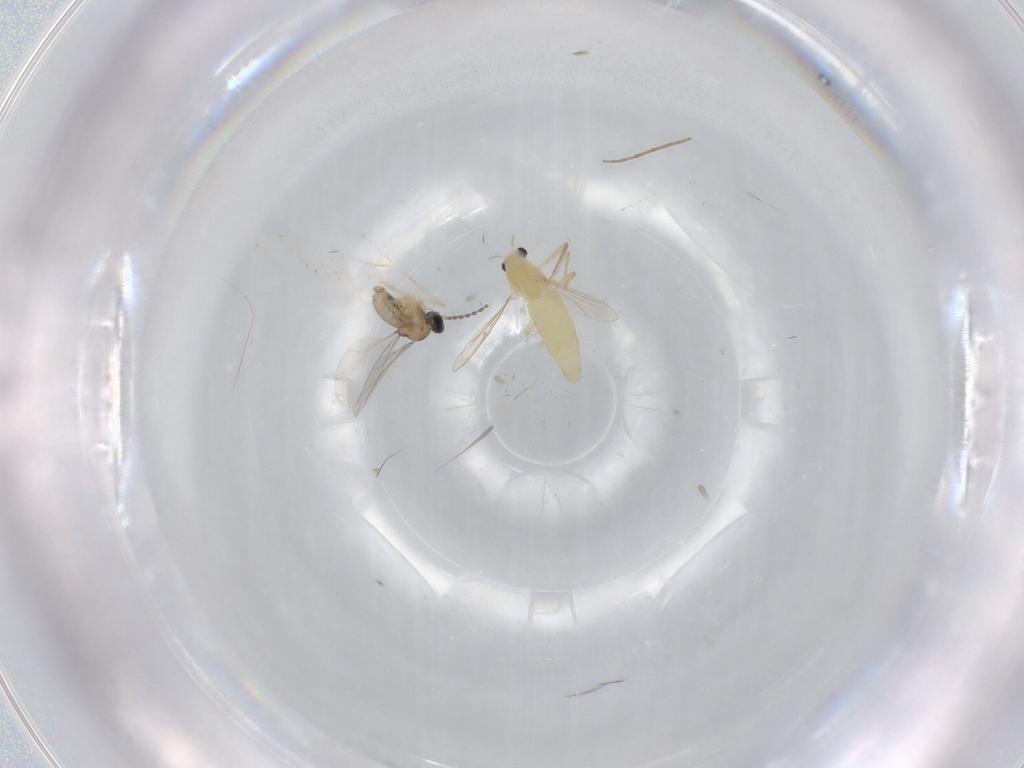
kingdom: Animalia
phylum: Arthropoda
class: Insecta
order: Diptera
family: Chironomidae
